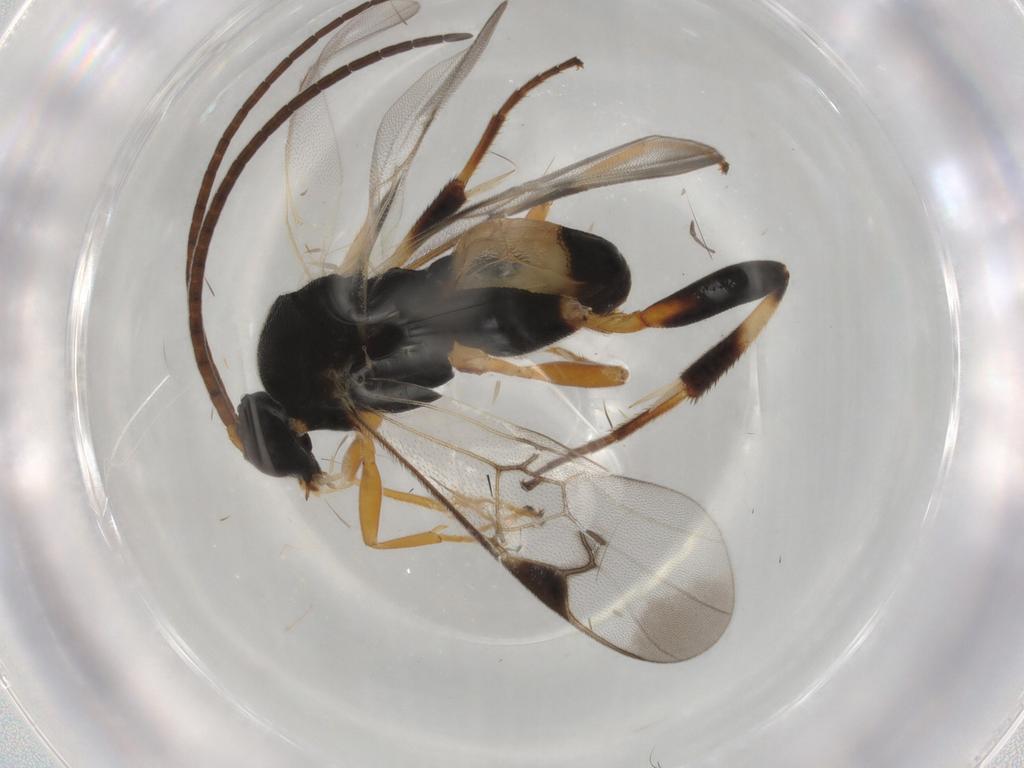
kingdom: Animalia
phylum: Arthropoda
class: Insecta
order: Hymenoptera
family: Braconidae
